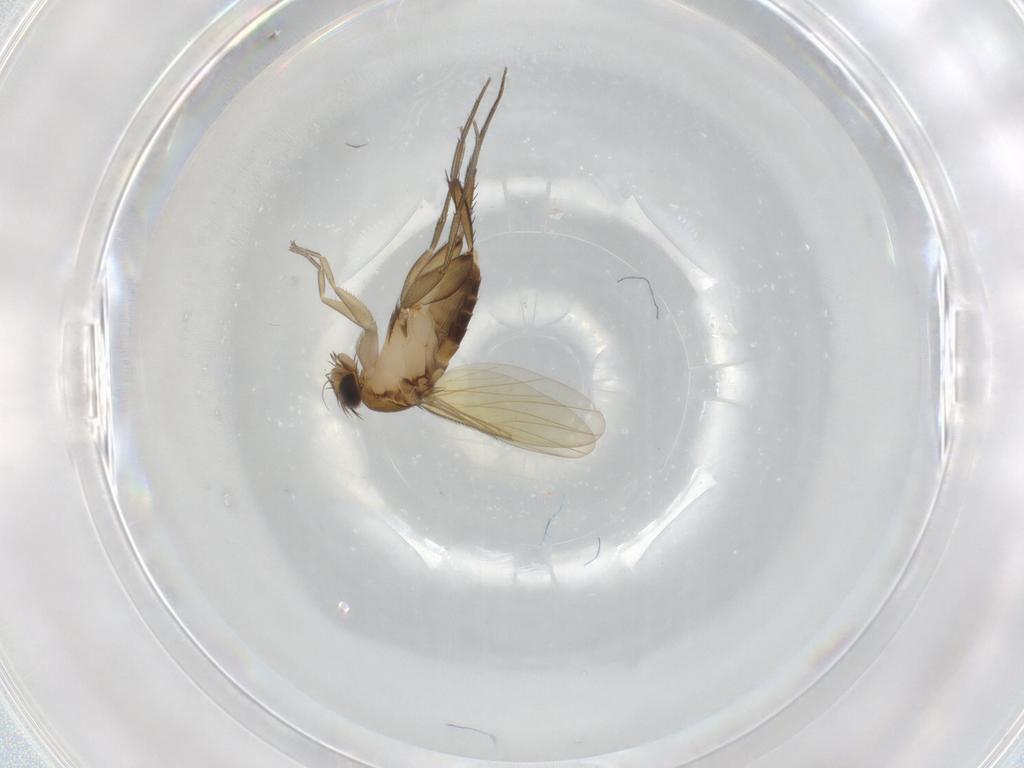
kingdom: Animalia
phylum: Arthropoda
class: Insecta
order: Diptera
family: Phoridae
